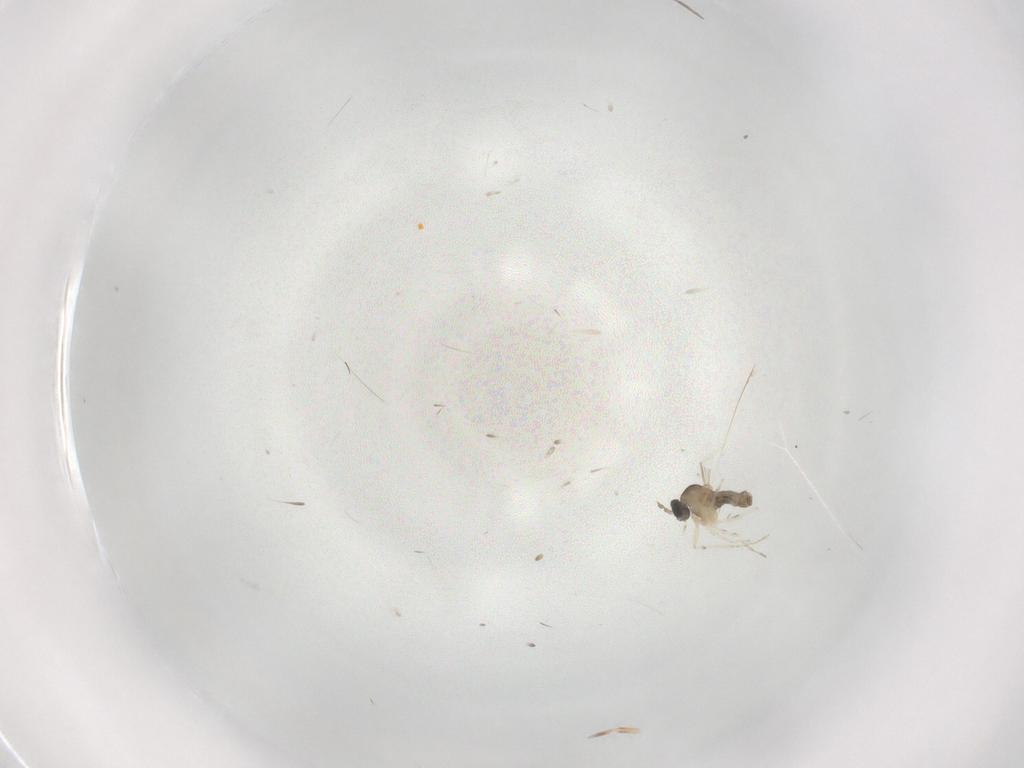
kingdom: Animalia
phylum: Arthropoda
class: Insecta
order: Diptera
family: Cecidomyiidae
